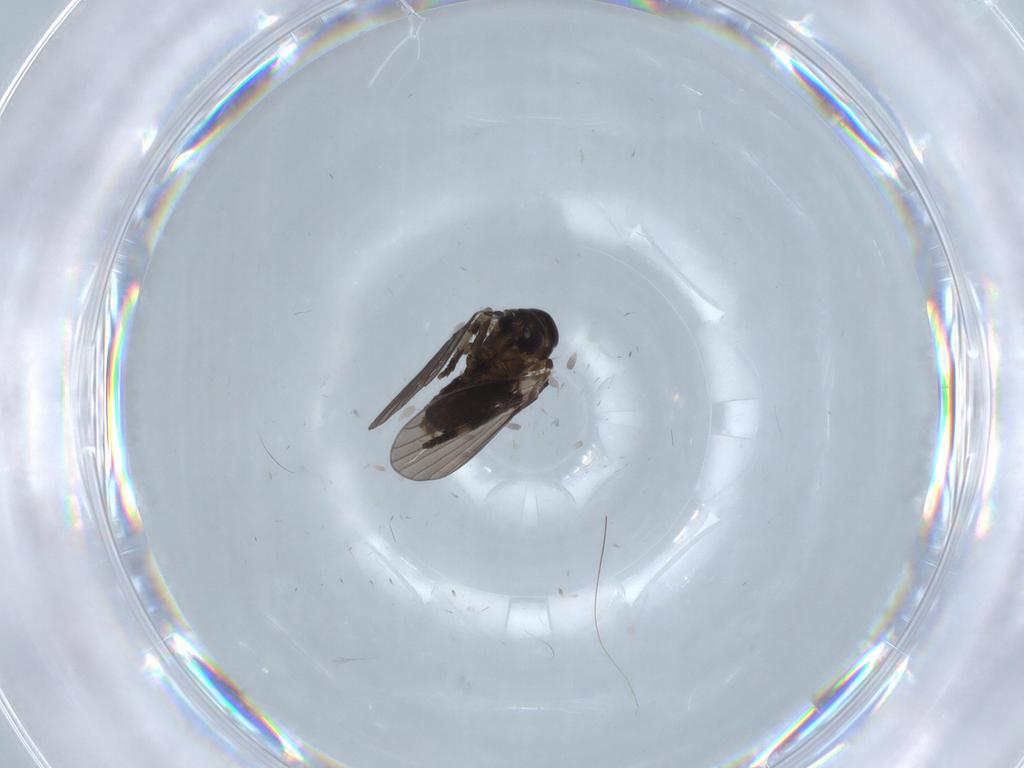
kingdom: Animalia
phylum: Arthropoda
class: Insecta
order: Diptera
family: Psychodidae
